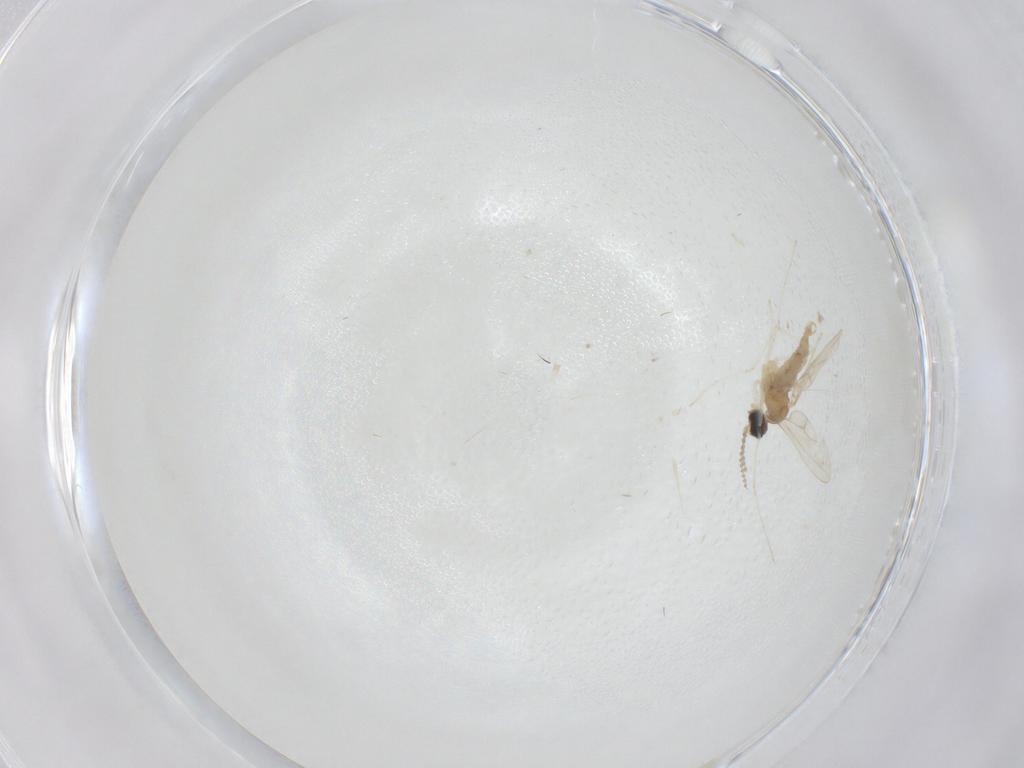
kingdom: Animalia
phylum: Arthropoda
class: Insecta
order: Diptera
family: Cecidomyiidae
